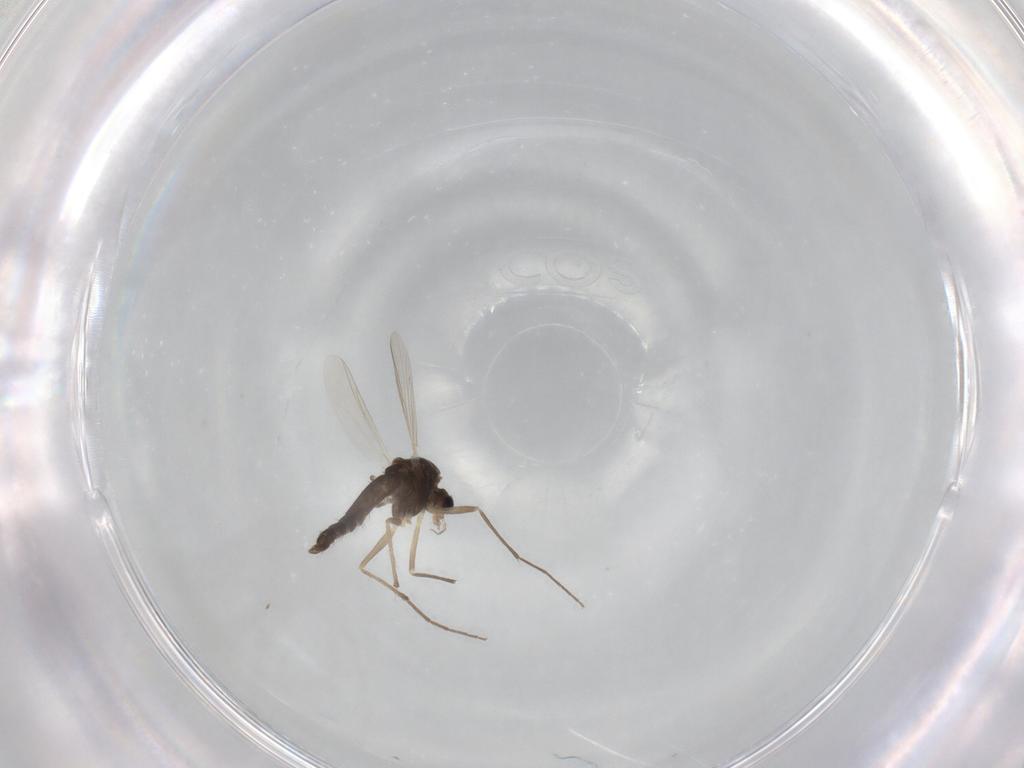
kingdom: Animalia
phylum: Arthropoda
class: Insecta
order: Diptera
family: Chironomidae
